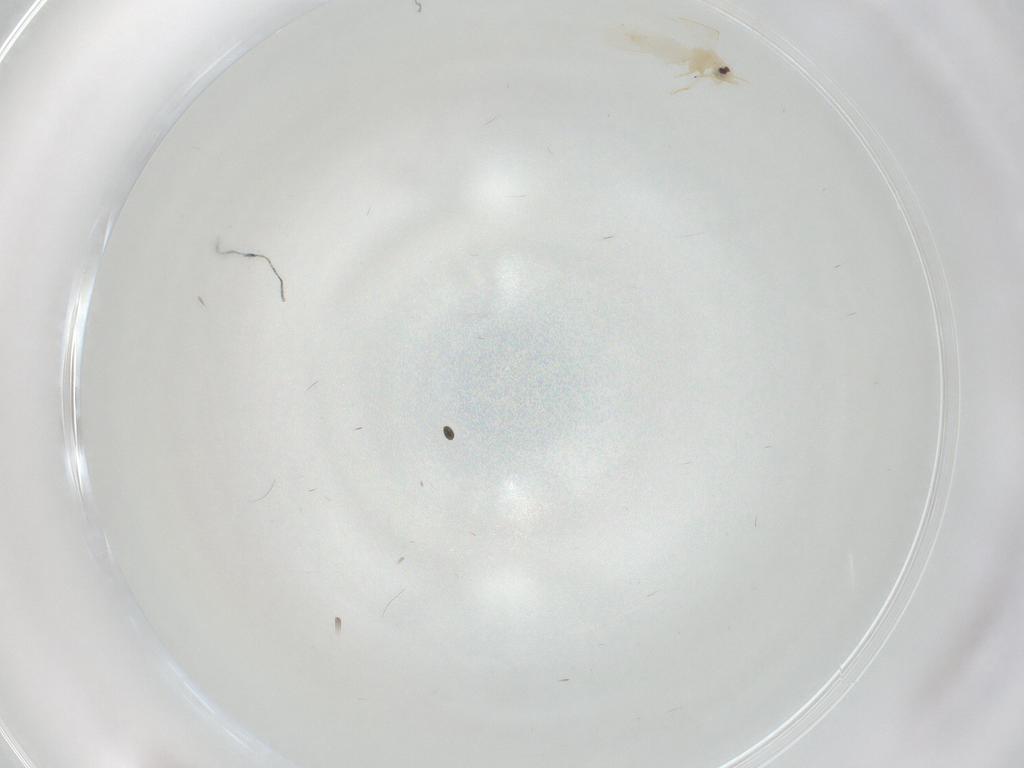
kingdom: Animalia
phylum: Arthropoda
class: Insecta
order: Hemiptera
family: Aleyrodidae
